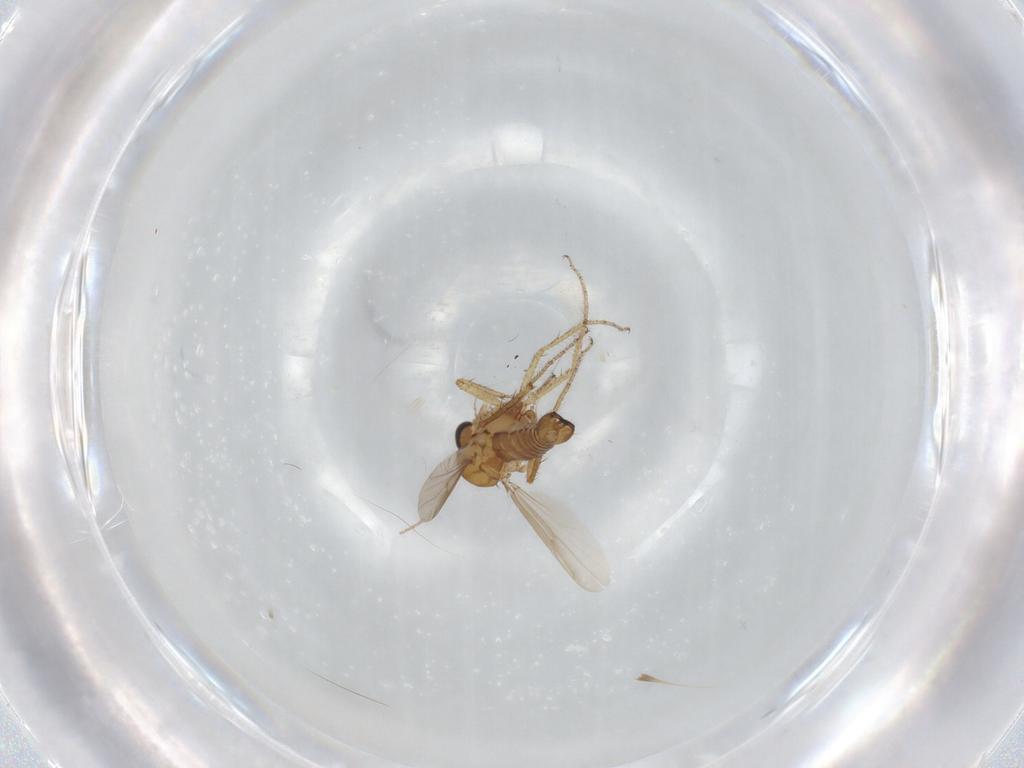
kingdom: Animalia
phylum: Arthropoda
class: Insecta
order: Diptera
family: Ceratopogonidae
